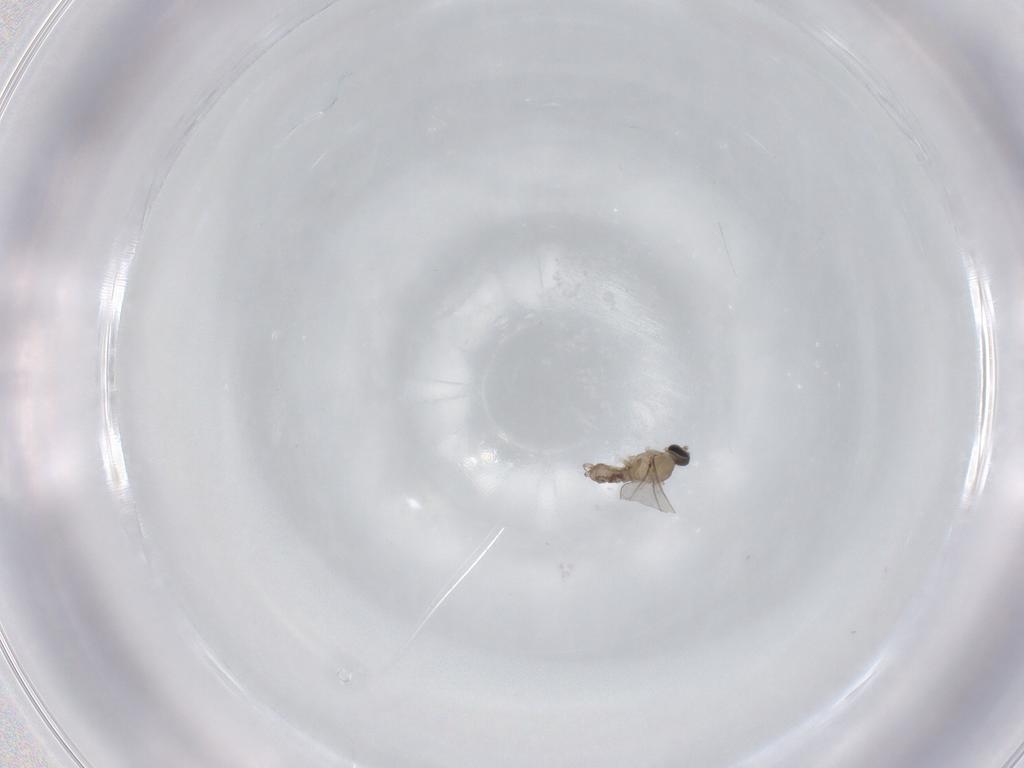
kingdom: Animalia
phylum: Arthropoda
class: Insecta
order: Diptera
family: Cecidomyiidae
